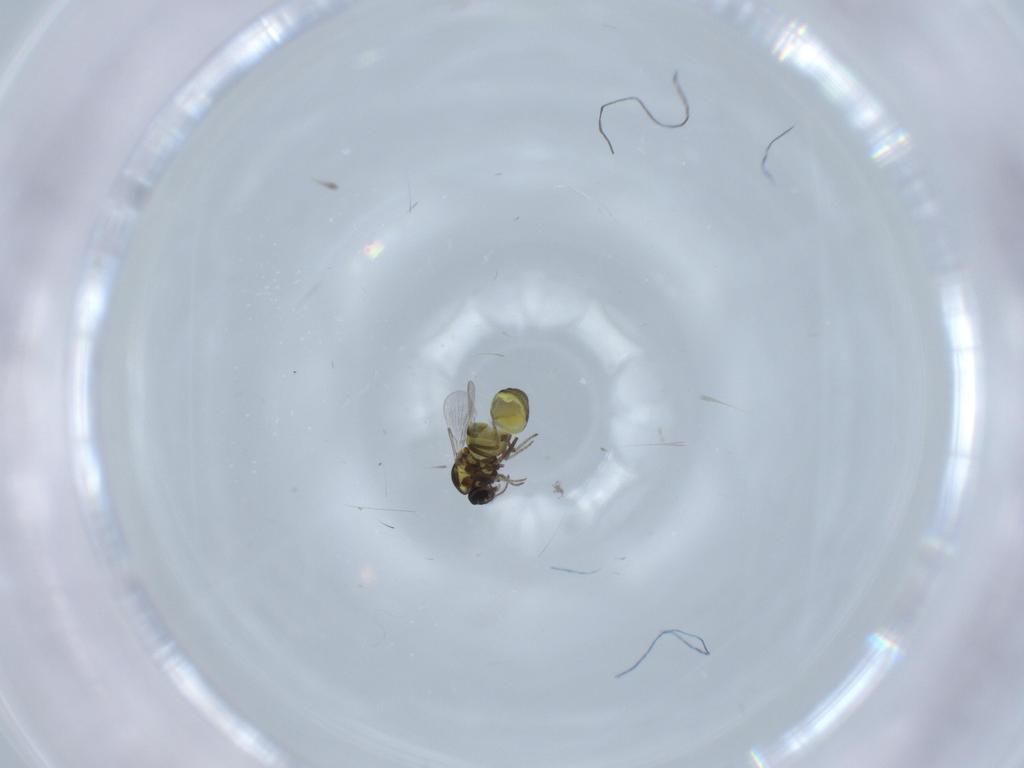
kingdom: Animalia
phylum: Arthropoda
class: Insecta
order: Diptera
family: Ceratopogonidae
